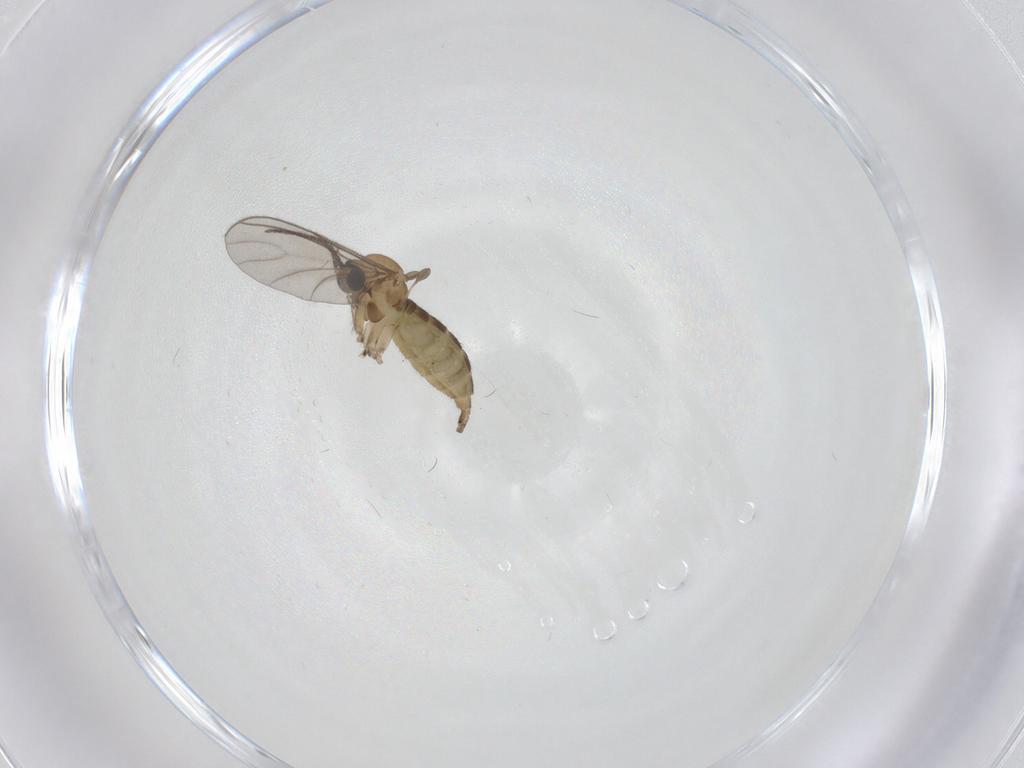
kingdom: Animalia
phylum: Arthropoda
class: Insecta
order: Diptera
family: Sciaridae
